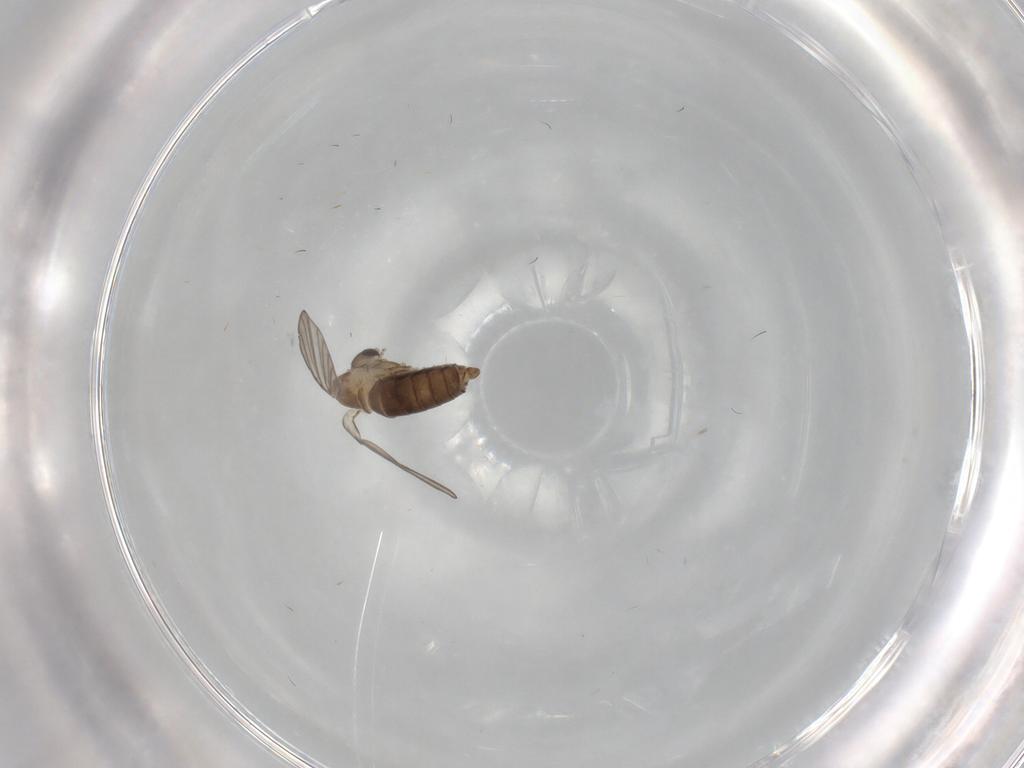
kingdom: Animalia
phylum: Arthropoda
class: Insecta
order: Diptera
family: Psychodidae
